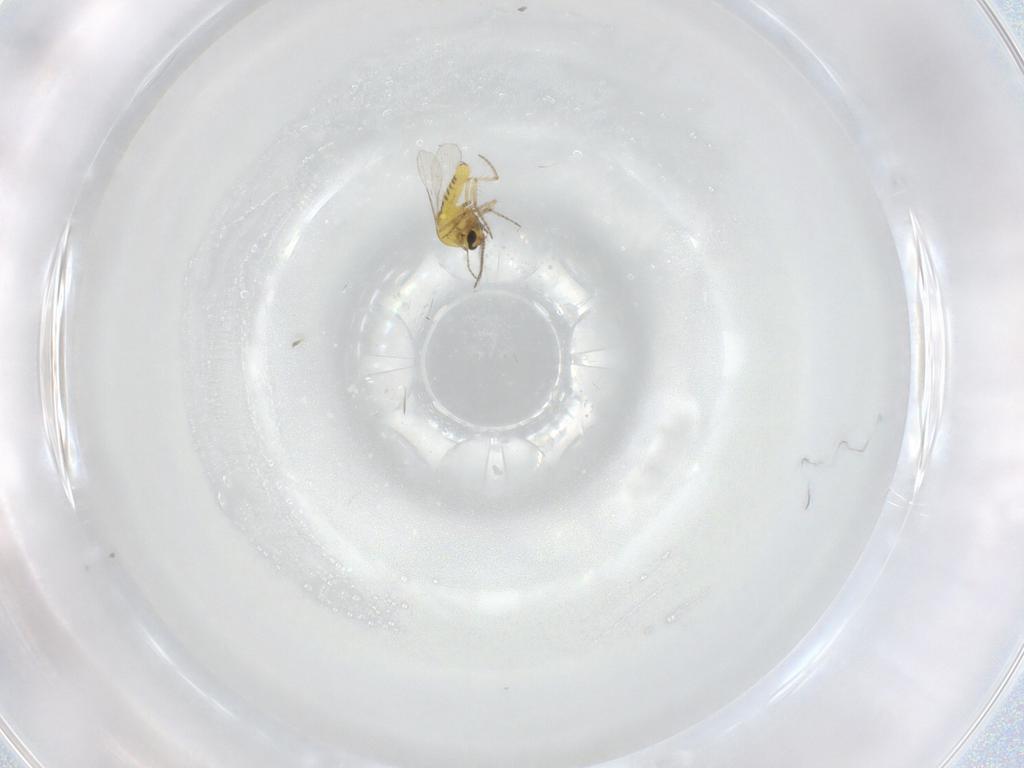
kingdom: Animalia
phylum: Arthropoda
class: Insecta
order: Diptera
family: Ceratopogonidae
